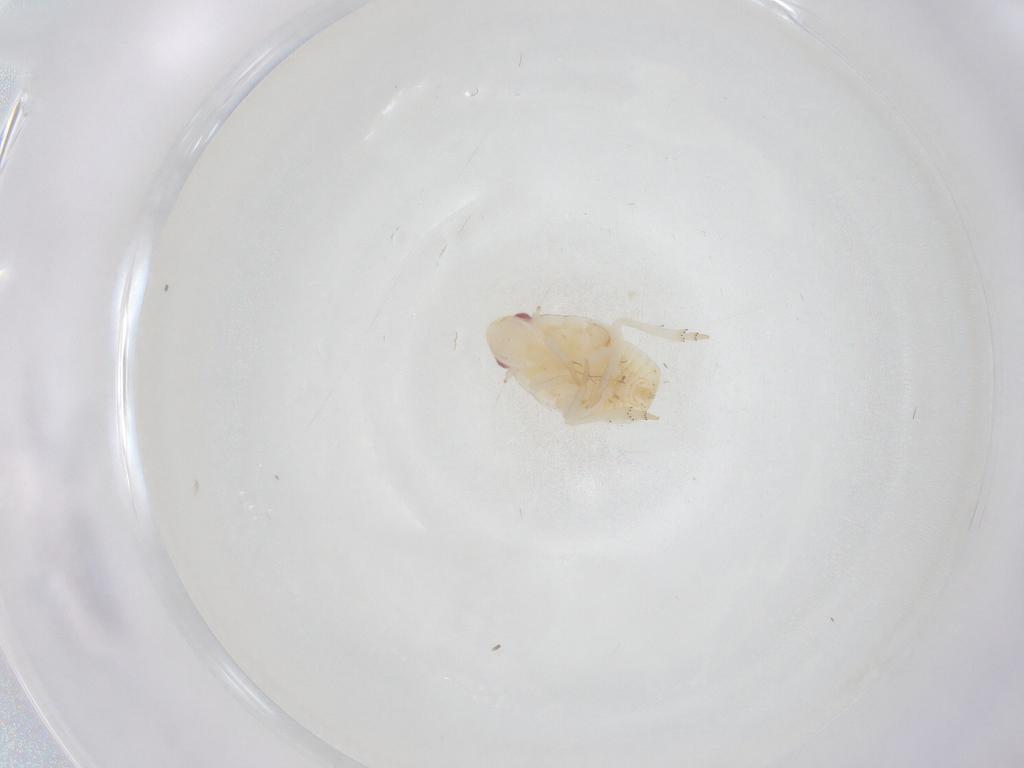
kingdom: Animalia
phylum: Arthropoda
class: Insecta
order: Hemiptera
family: Flatidae
